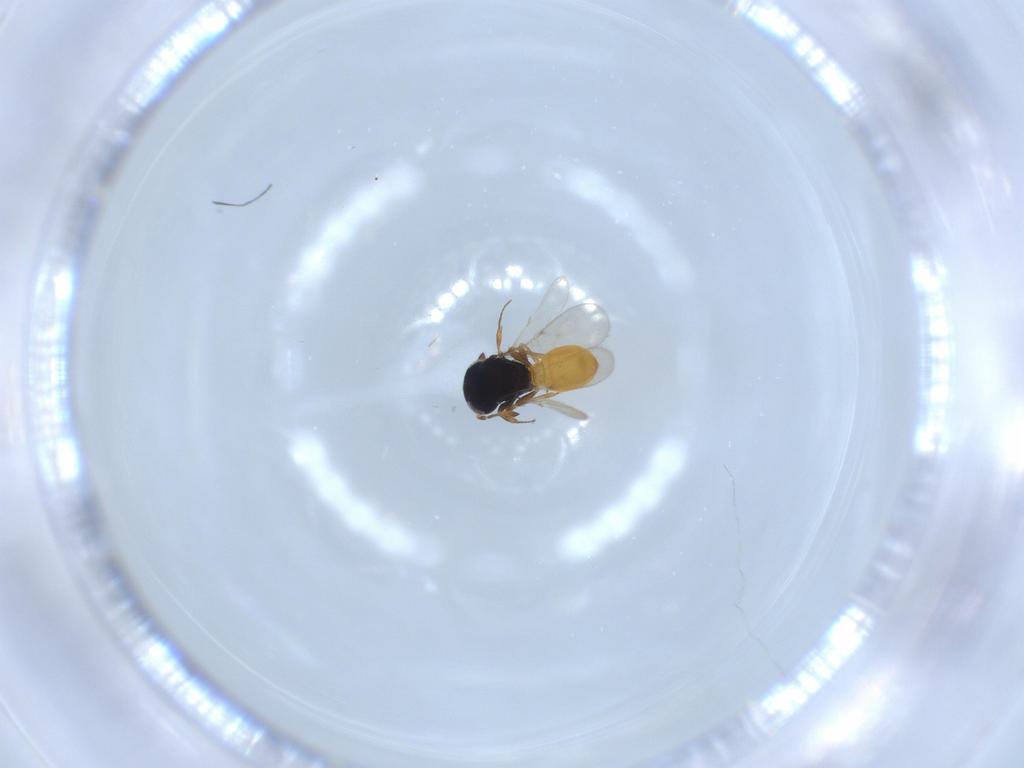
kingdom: Animalia
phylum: Arthropoda
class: Insecta
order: Hymenoptera
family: Scelionidae
